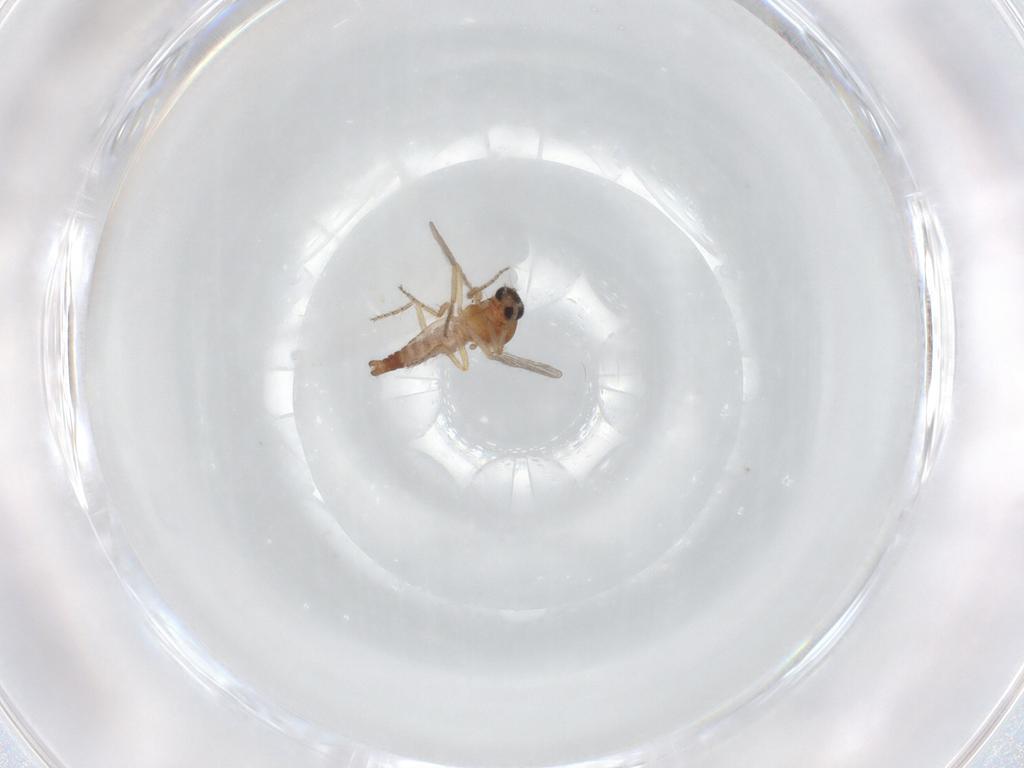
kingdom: Animalia
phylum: Arthropoda
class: Insecta
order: Diptera
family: Ceratopogonidae
